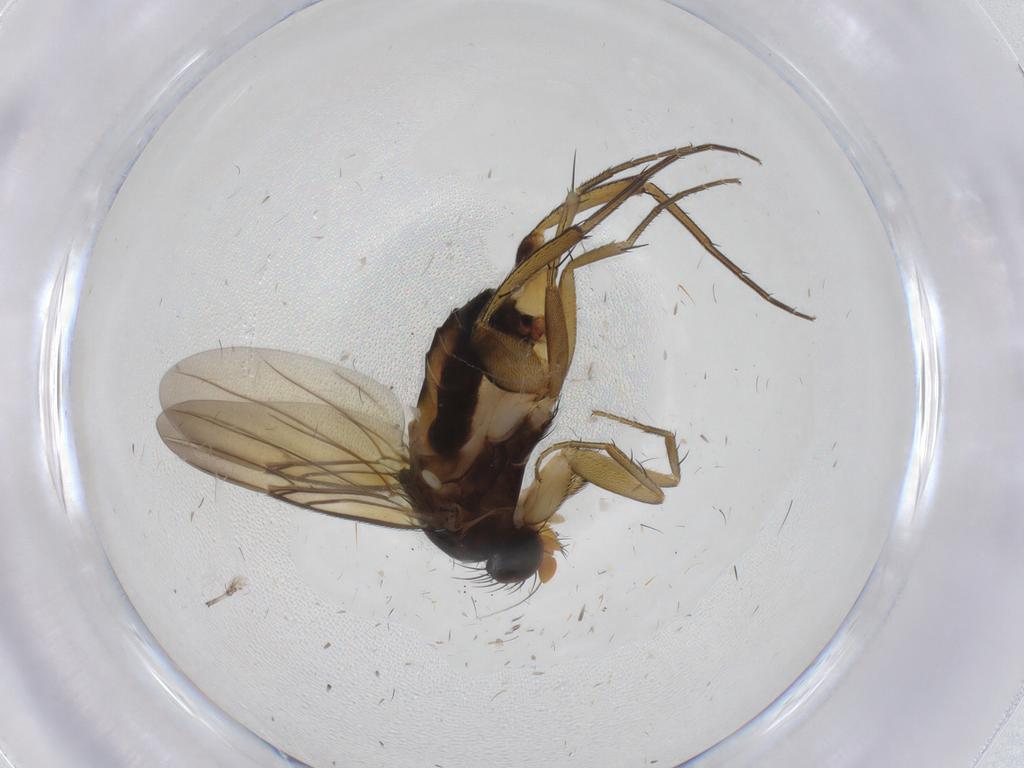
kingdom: Animalia
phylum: Arthropoda
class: Insecta
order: Diptera
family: Phoridae
